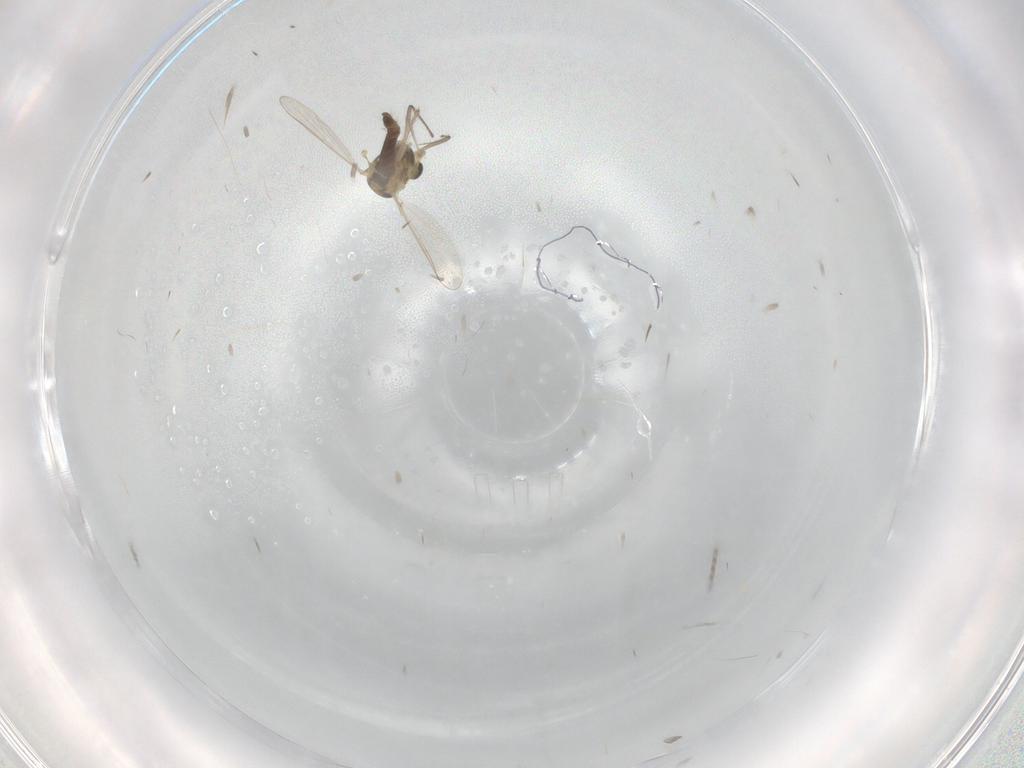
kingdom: Animalia
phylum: Arthropoda
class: Insecta
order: Diptera
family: Chironomidae
